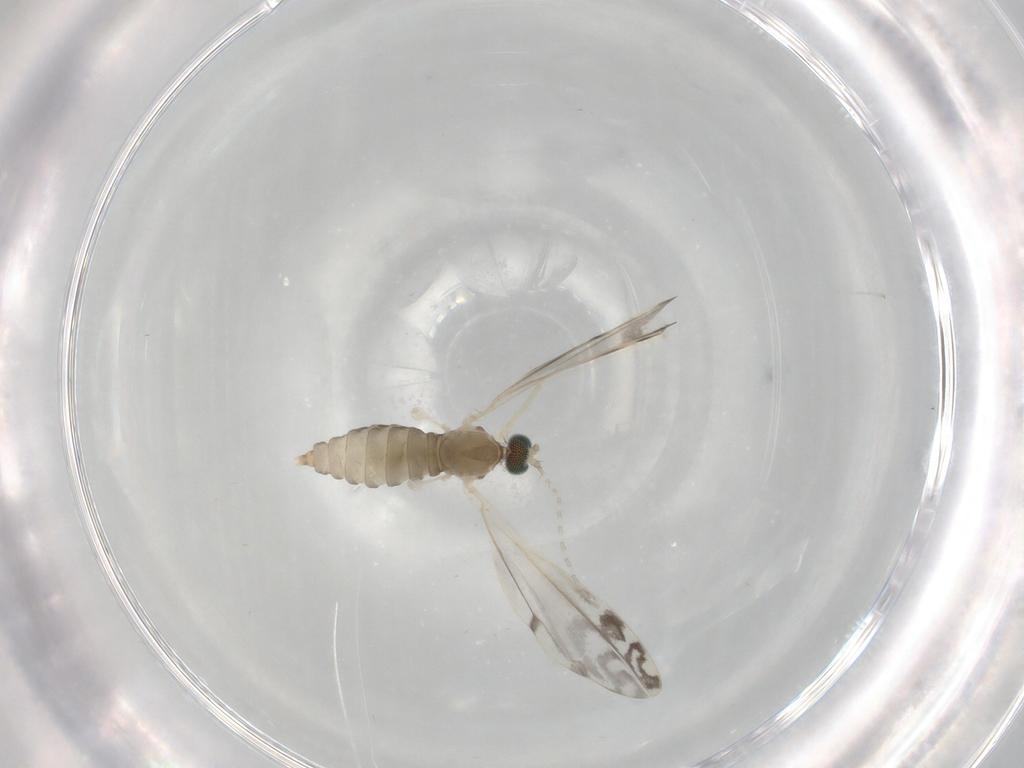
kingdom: Animalia
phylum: Arthropoda
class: Insecta
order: Diptera
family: Cecidomyiidae
